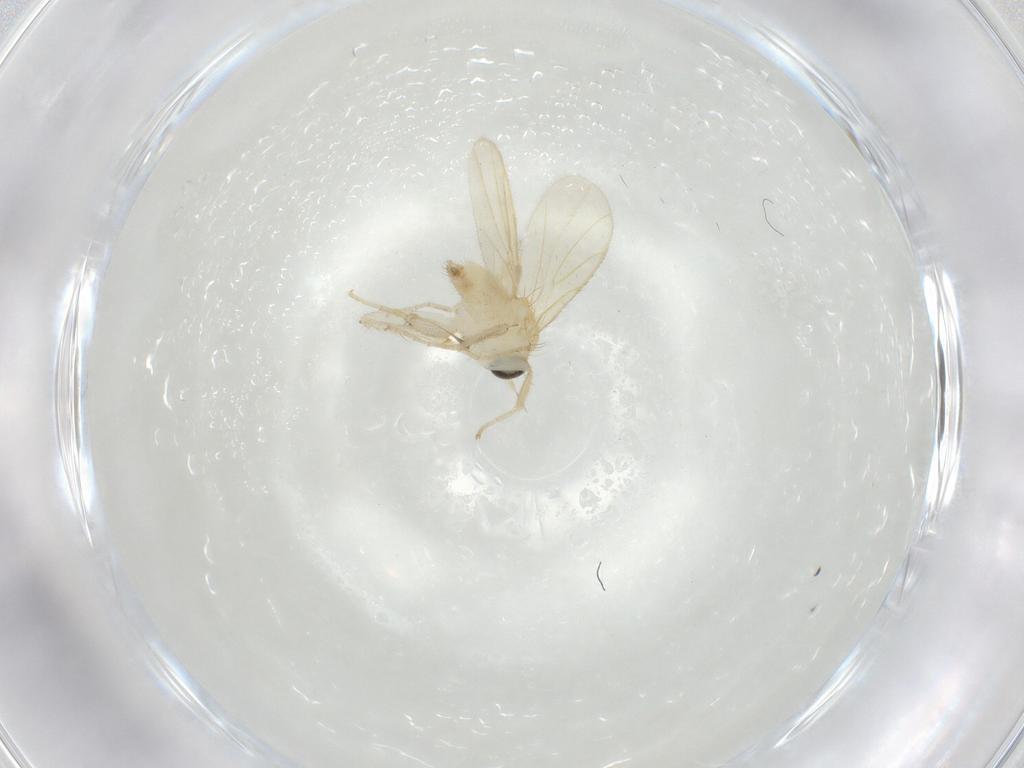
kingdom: Animalia
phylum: Arthropoda
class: Insecta
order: Diptera
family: Hybotidae
